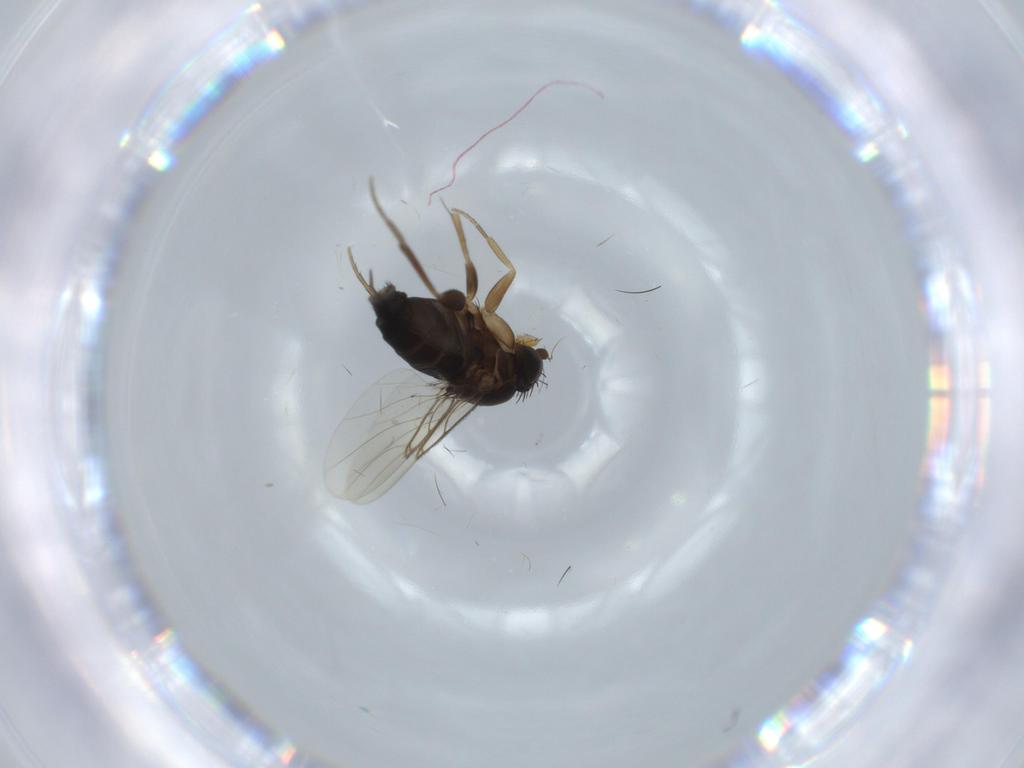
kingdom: Animalia
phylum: Arthropoda
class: Insecta
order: Diptera
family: Phoridae
